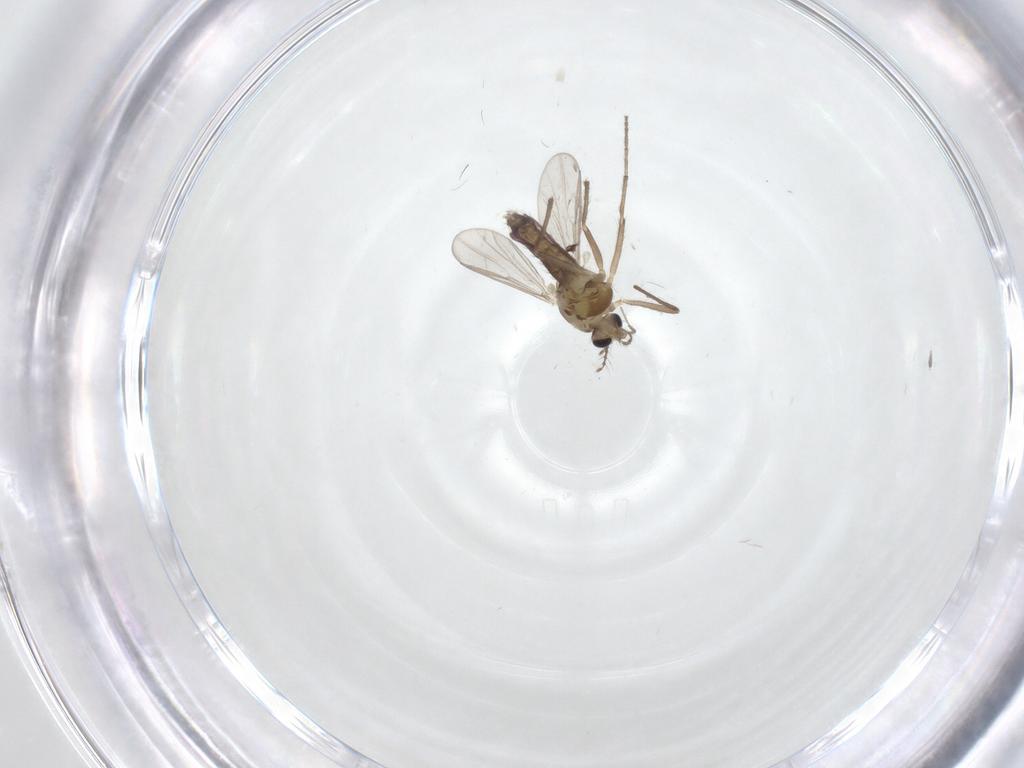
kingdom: Animalia
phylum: Arthropoda
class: Insecta
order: Diptera
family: Chironomidae
